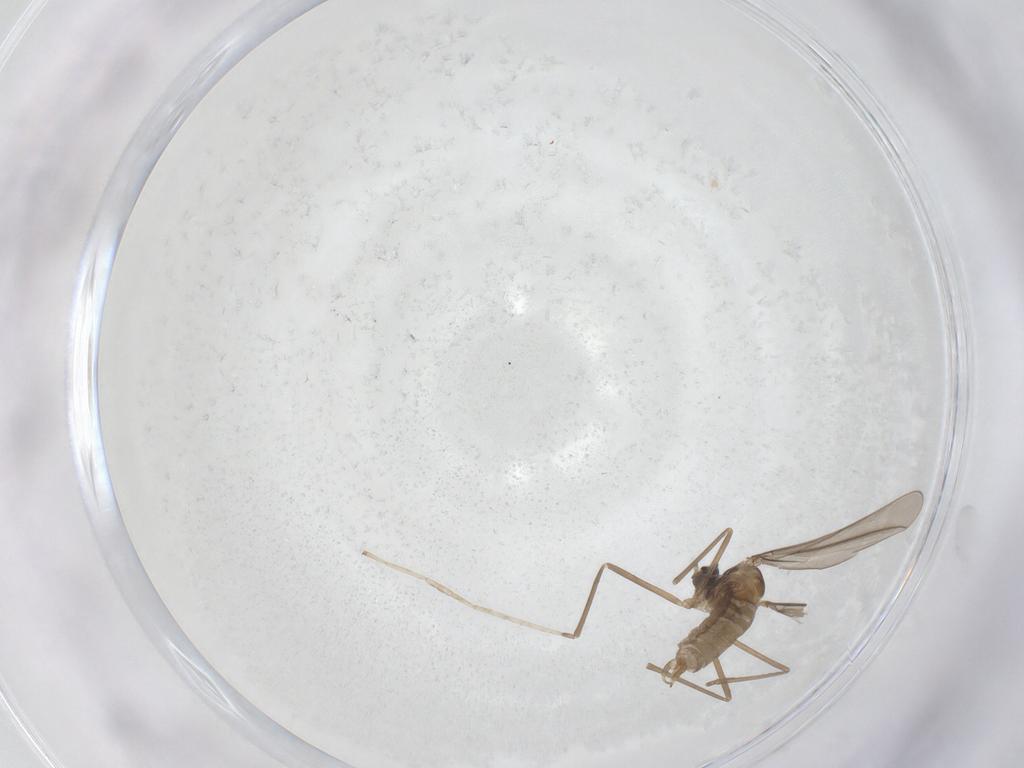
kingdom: Animalia
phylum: Arthropoda
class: Insecta
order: Diptera
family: Cecidomyiidae
